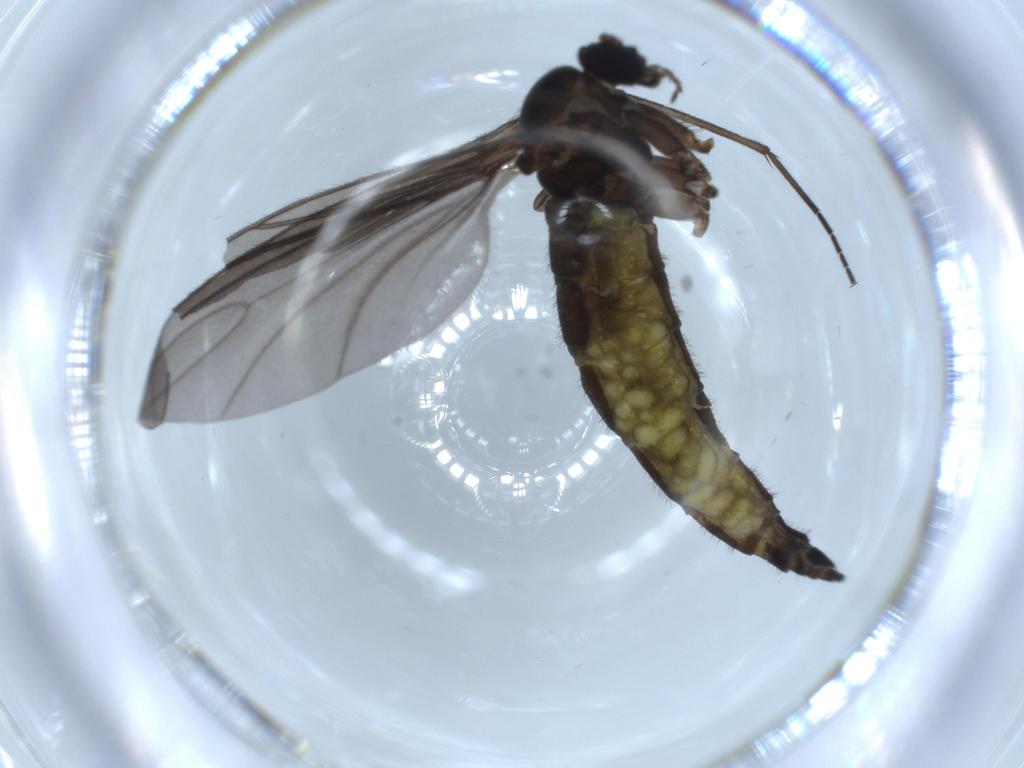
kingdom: Animalia
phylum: Arthropoda
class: Insecta
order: Diptera
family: Sciaridae
